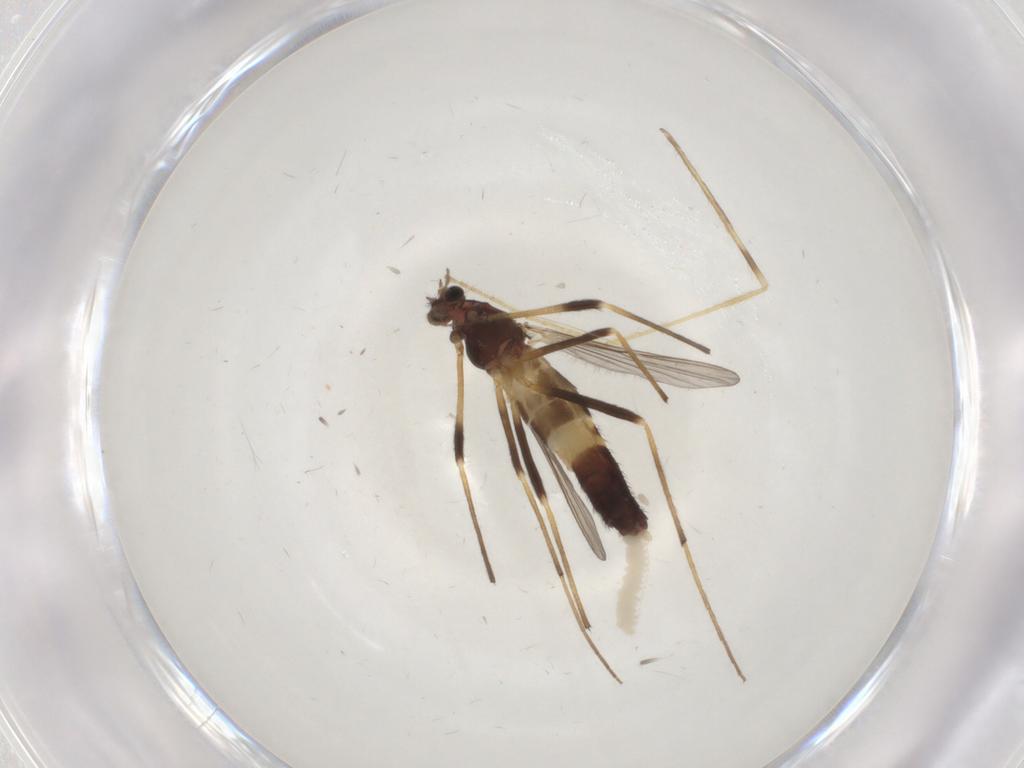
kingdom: Animalia
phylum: Arthropoda
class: Insecta
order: Diptera
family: Limoniidae
